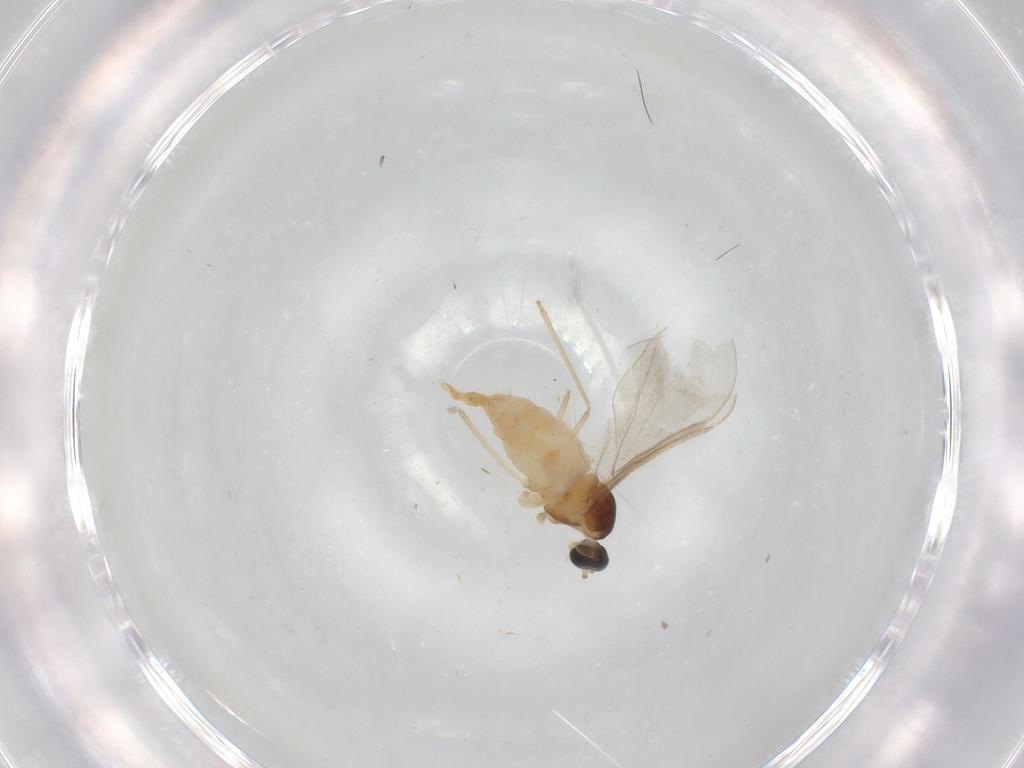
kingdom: Animalia
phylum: Arthropoda
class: Insecta
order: Diptera
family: Cecidomyiidae
